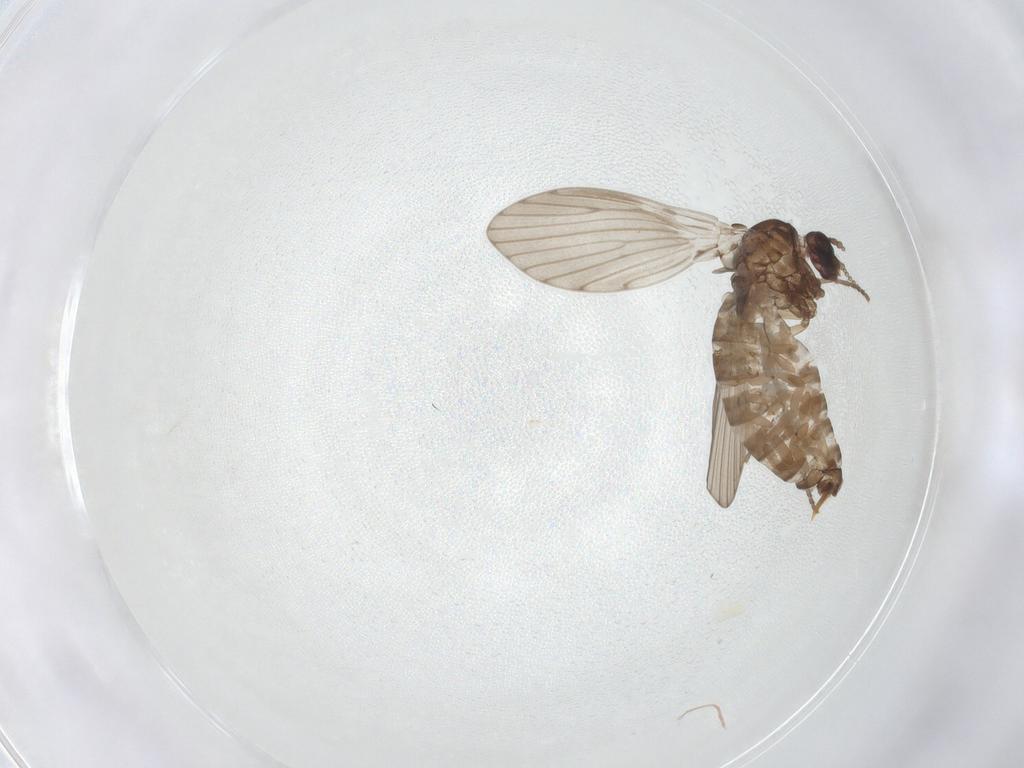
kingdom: Animalia
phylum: Arthropoda
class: Insecta
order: Diptera
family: Psychodidae
